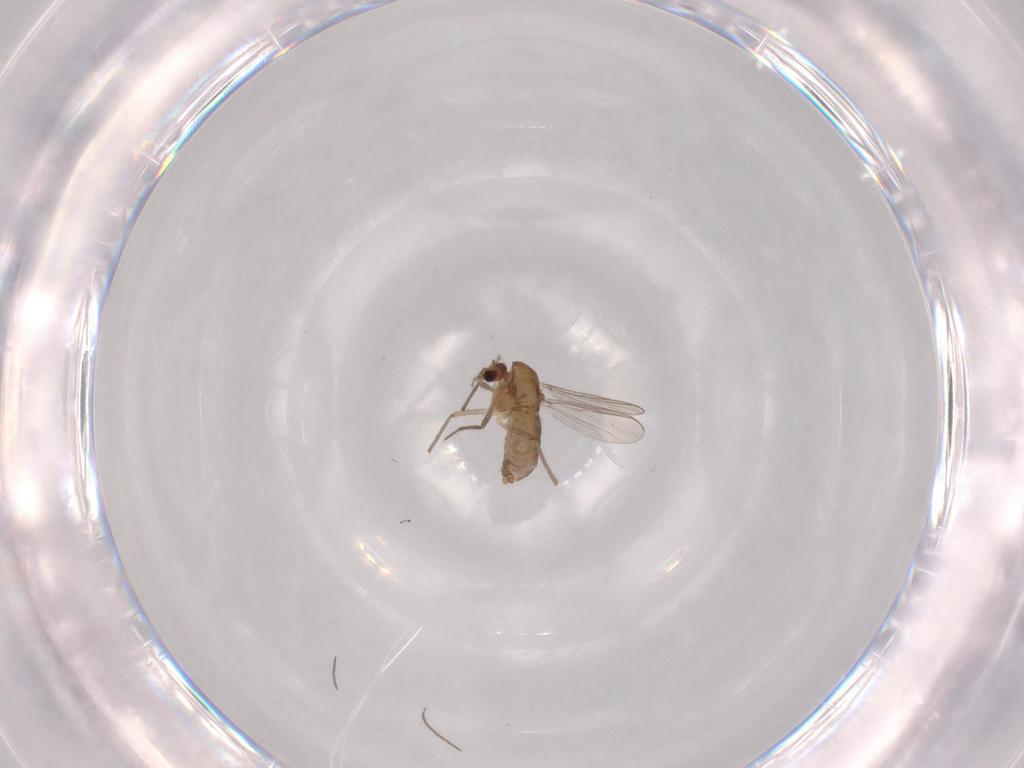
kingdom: Animalia
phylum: Arthropoda
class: Insecta
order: Diptera
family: Chironomidae
